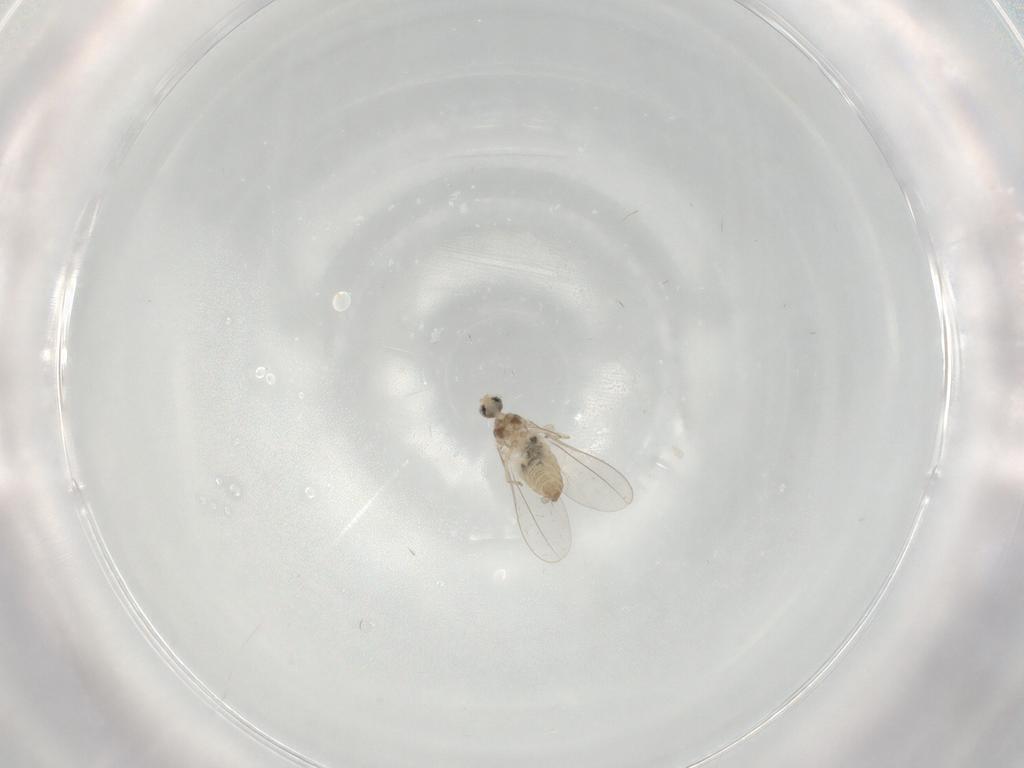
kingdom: Animalia
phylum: Arthropoda
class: Insecta
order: Diptera
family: Cecidomyiidae
